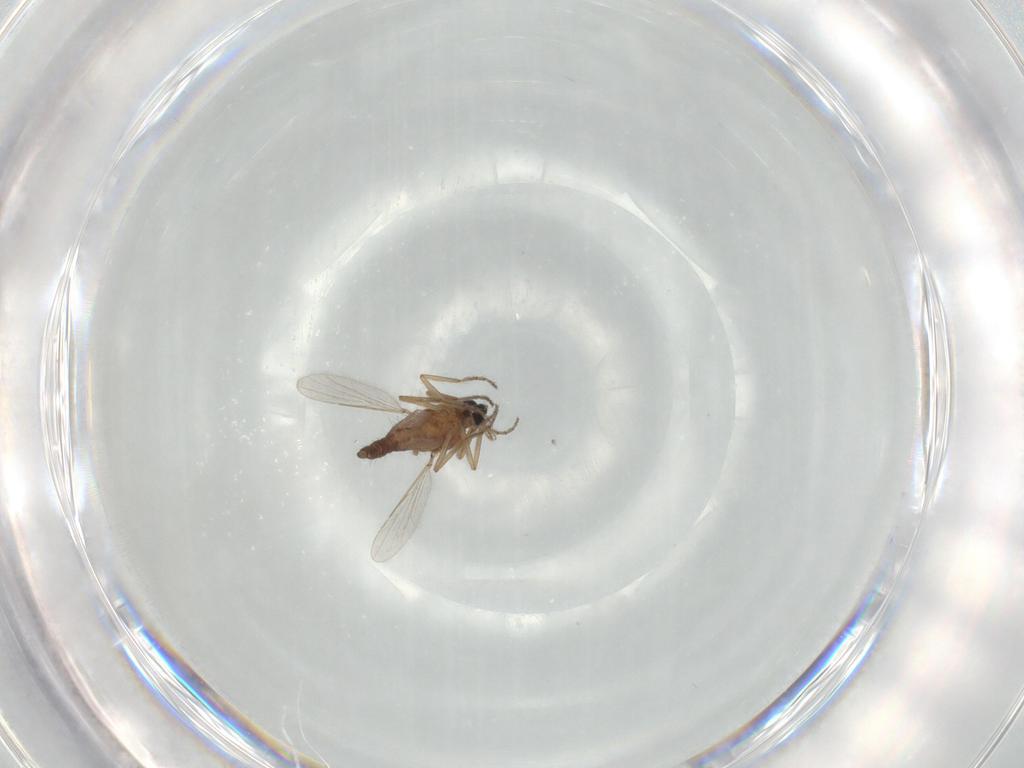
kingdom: Animalia
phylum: Arthropoda
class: Insecta
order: Diptera
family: Ceratopogonidae
